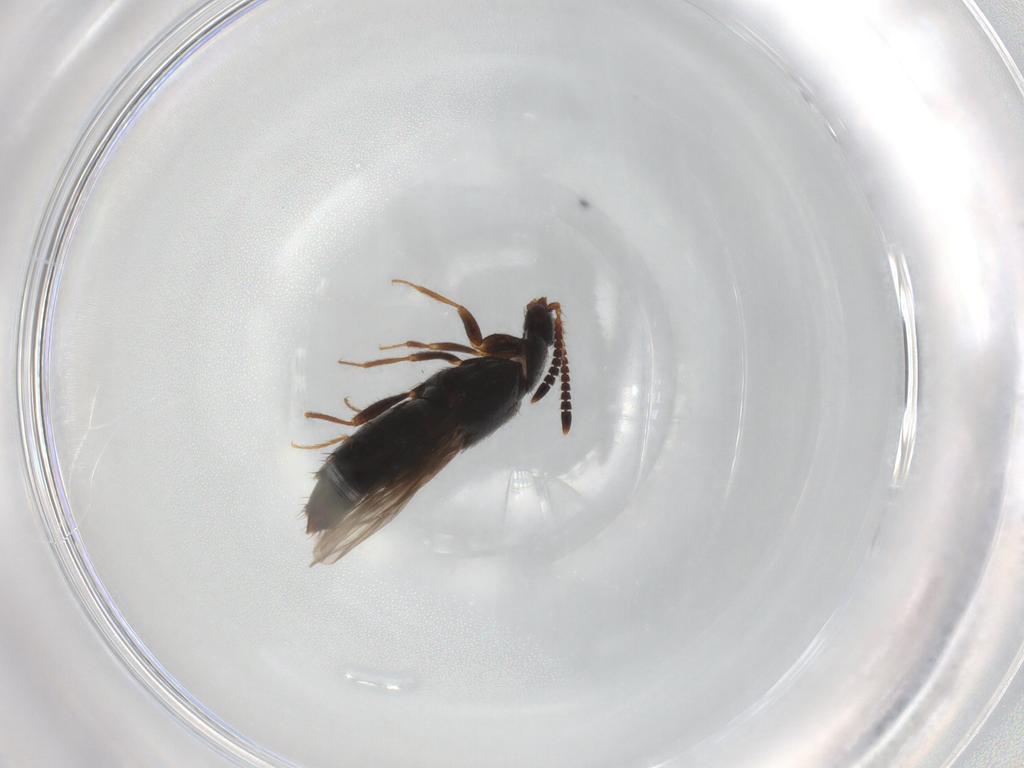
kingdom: Animalia
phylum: Arthropoda
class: Insecta
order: Coleoptera
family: Staphylinidae
